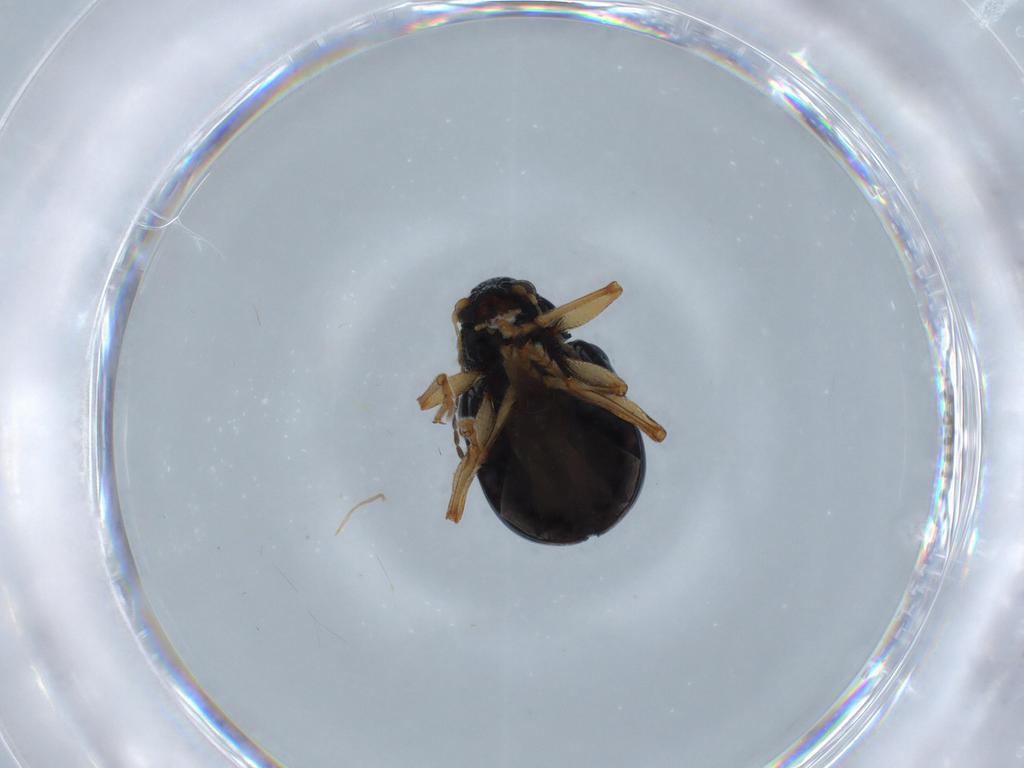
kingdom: Animalia
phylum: Arthropoda
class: Insecta
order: Coleoptera
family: Chrysomelidae
